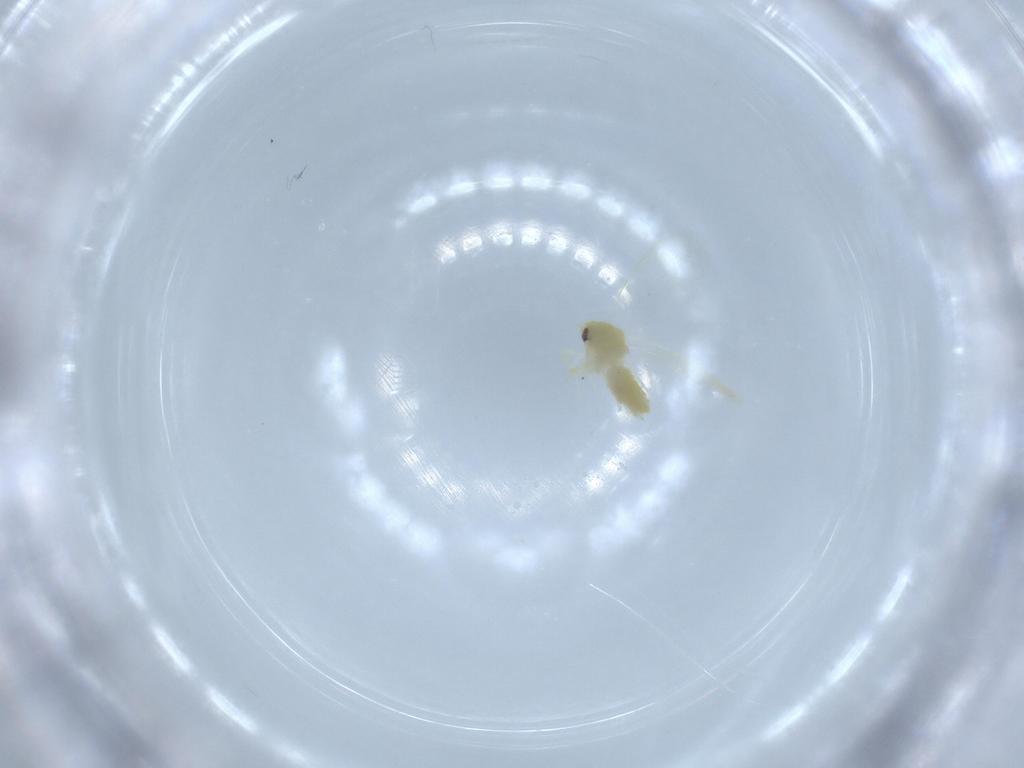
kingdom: Animalia
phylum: Arthropoda
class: Insecta
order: Hemiptera
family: Aleyrodidae
